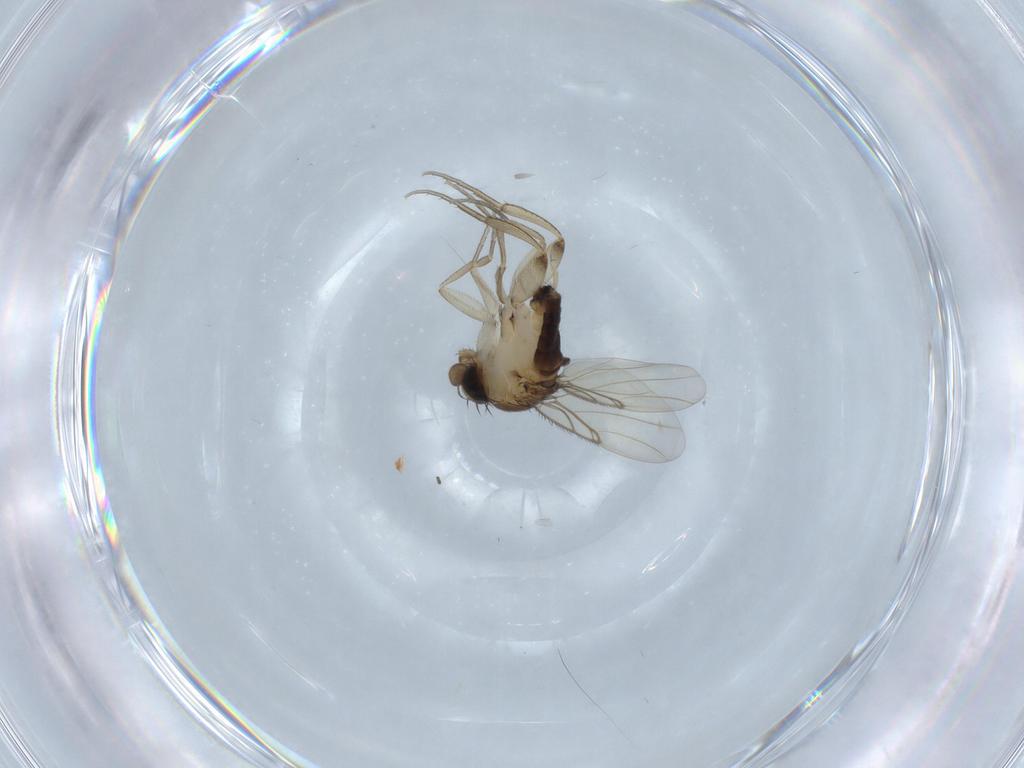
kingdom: Animalia
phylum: Arthropoda
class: Insecta
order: Diptera
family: Phoridae
